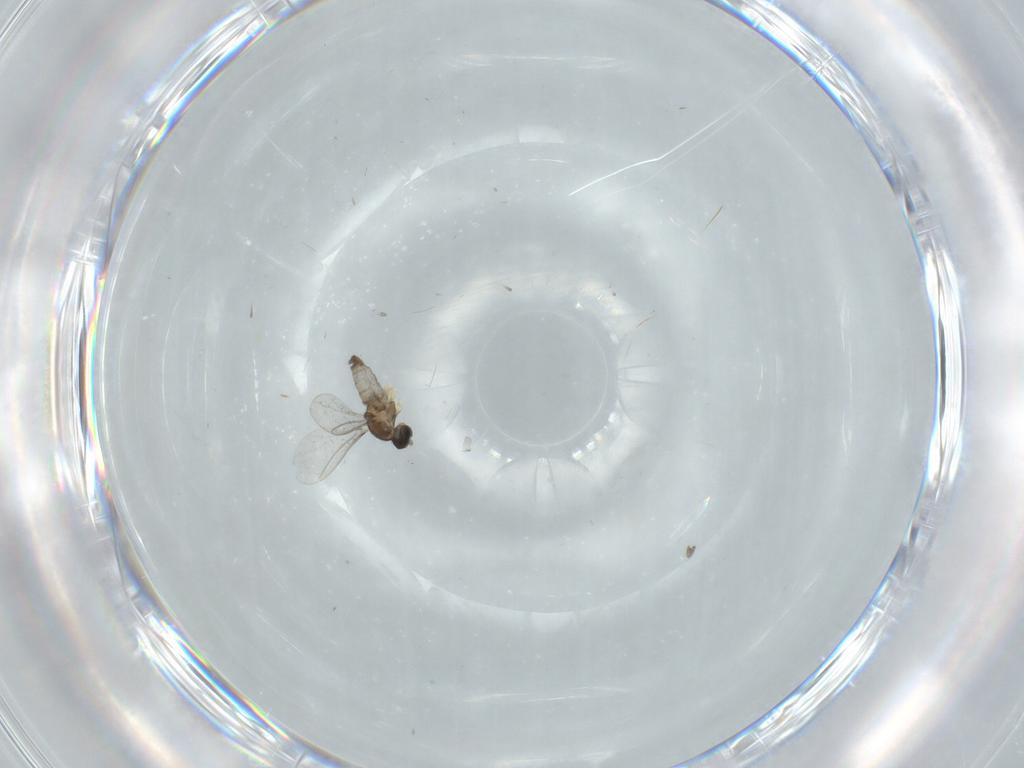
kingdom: Animalia
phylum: Arthropoda
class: Insecta
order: Diptera
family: Cecidomyiidae
